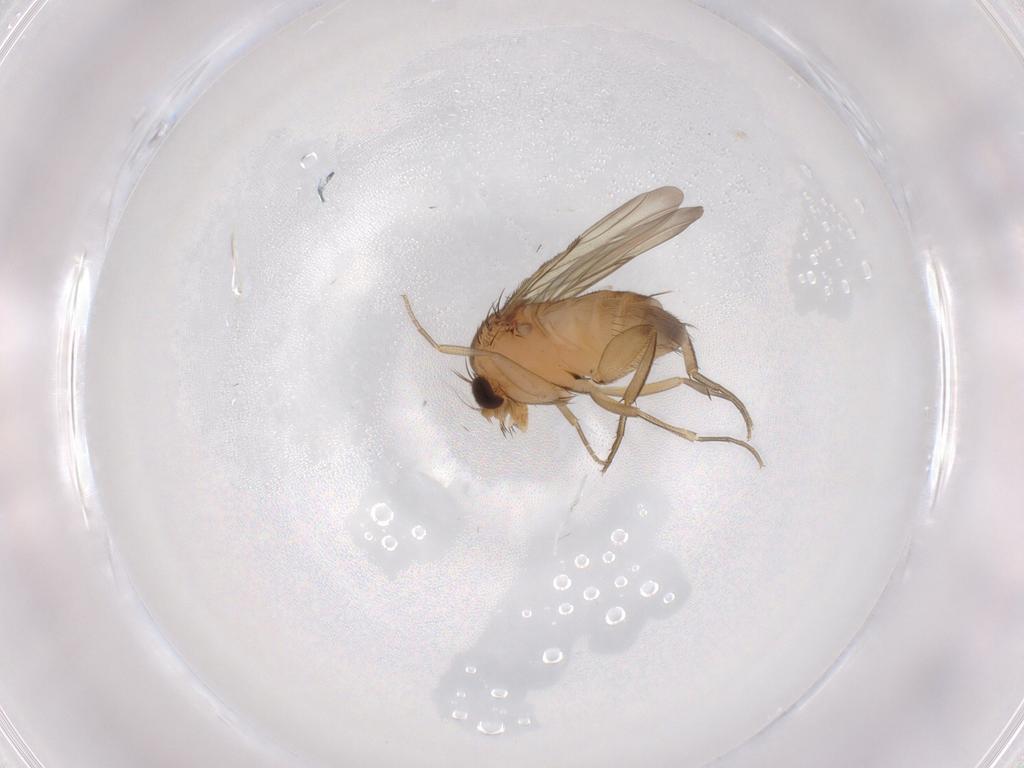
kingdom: Animalia
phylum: Arthropoda
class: Insecta
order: Diptera
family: Phoridae
